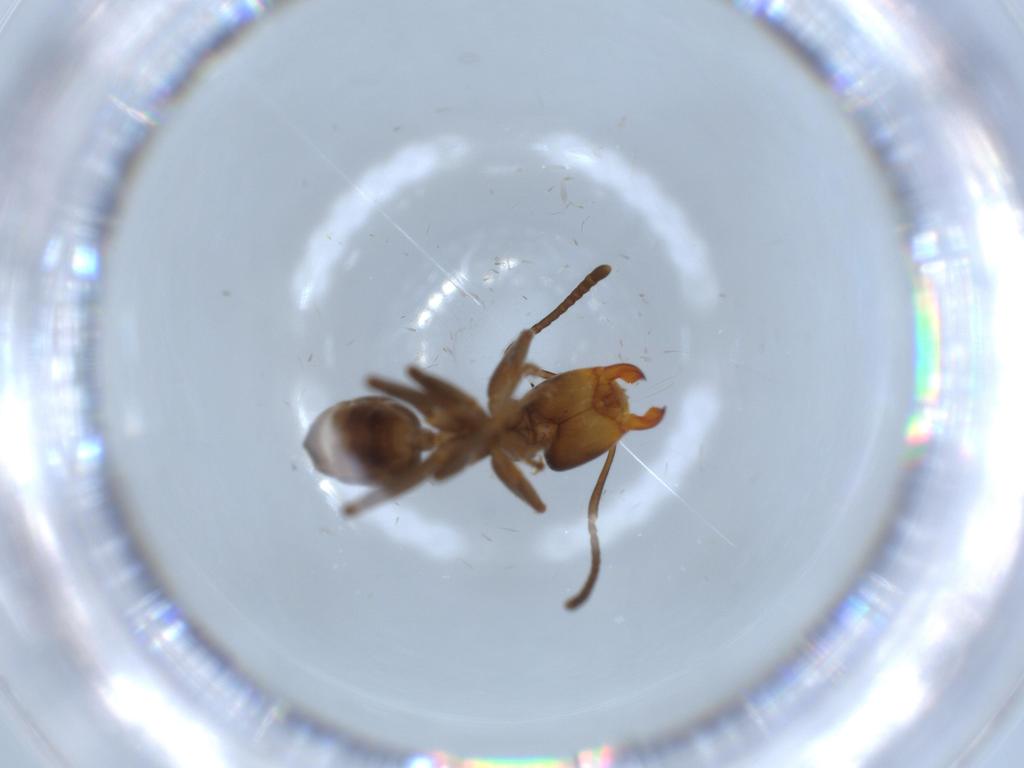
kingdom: Animalia
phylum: Arthropoda
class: Insecta
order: Hymenoptera
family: Formicidae
